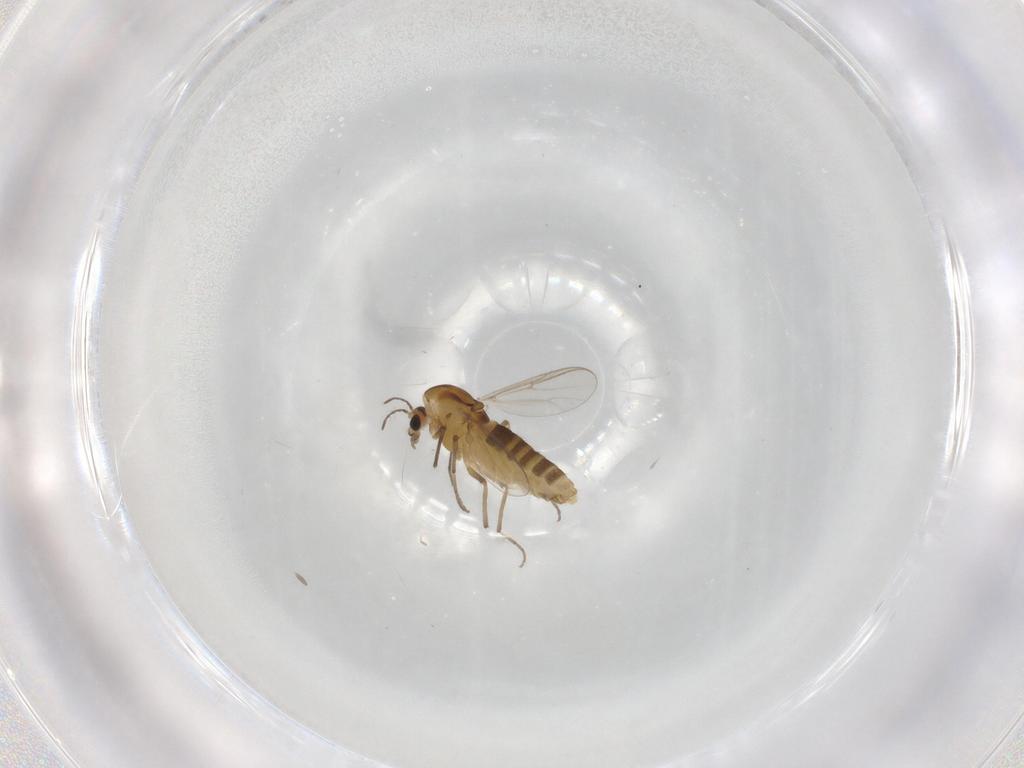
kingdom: Animalia
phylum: Arthropoda
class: Insecta
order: Diptera
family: Chironomidae
